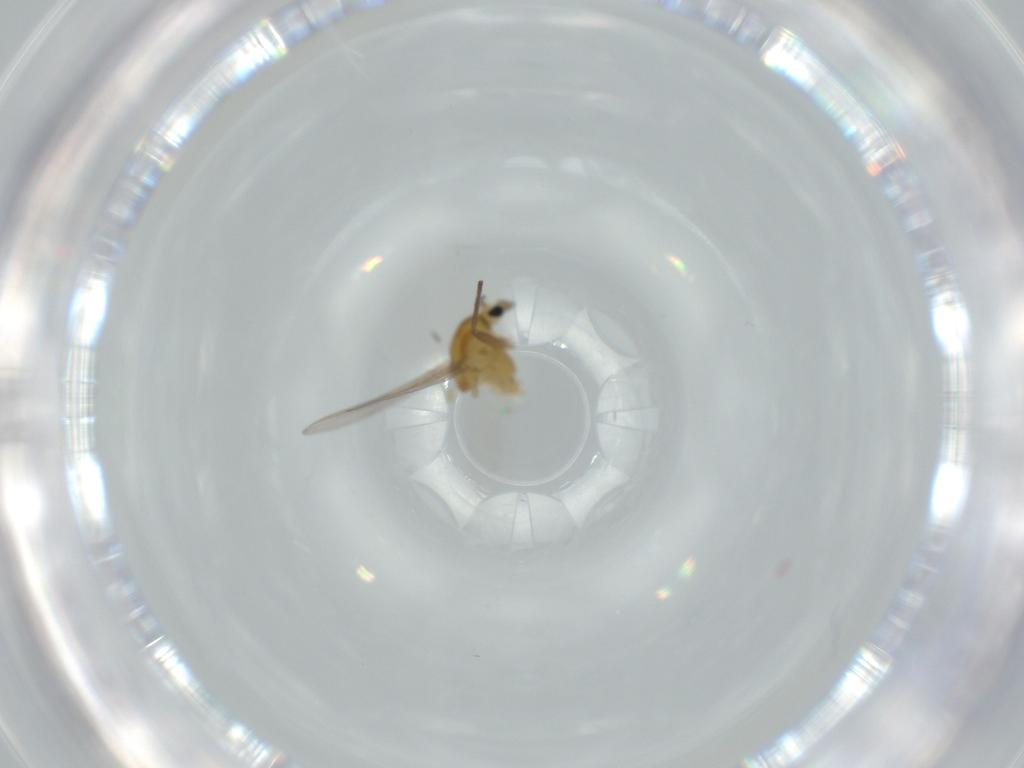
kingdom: Animalia
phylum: Arthropoda
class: Insecta
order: Diptera
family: Chironomidae
